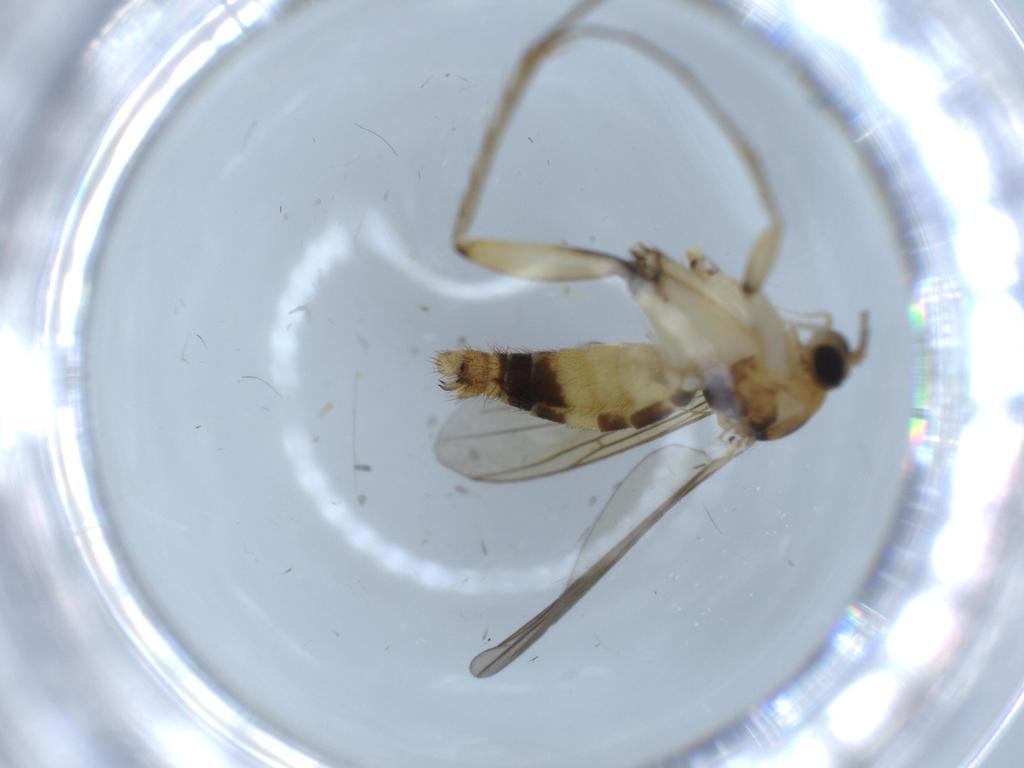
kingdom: Animalia
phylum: Arthropoda
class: Insecta
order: Diptera
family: Mycetophilidae
